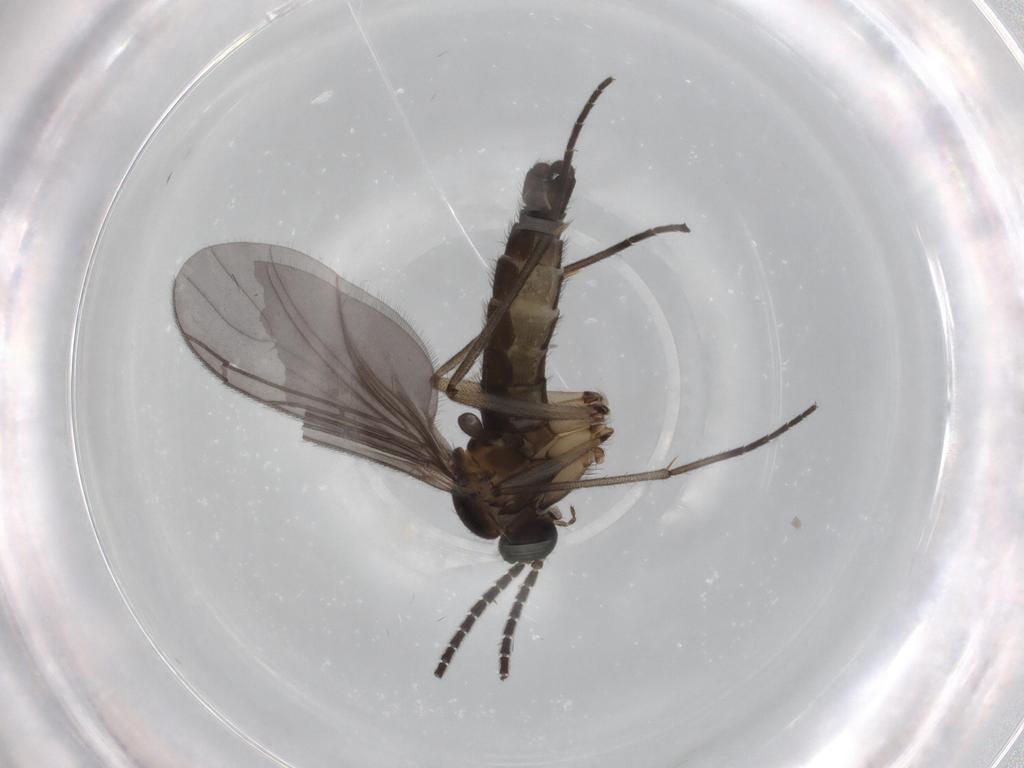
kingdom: Animalia
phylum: Arthropoda
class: Insecta
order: Diptera
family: Sciaridae
